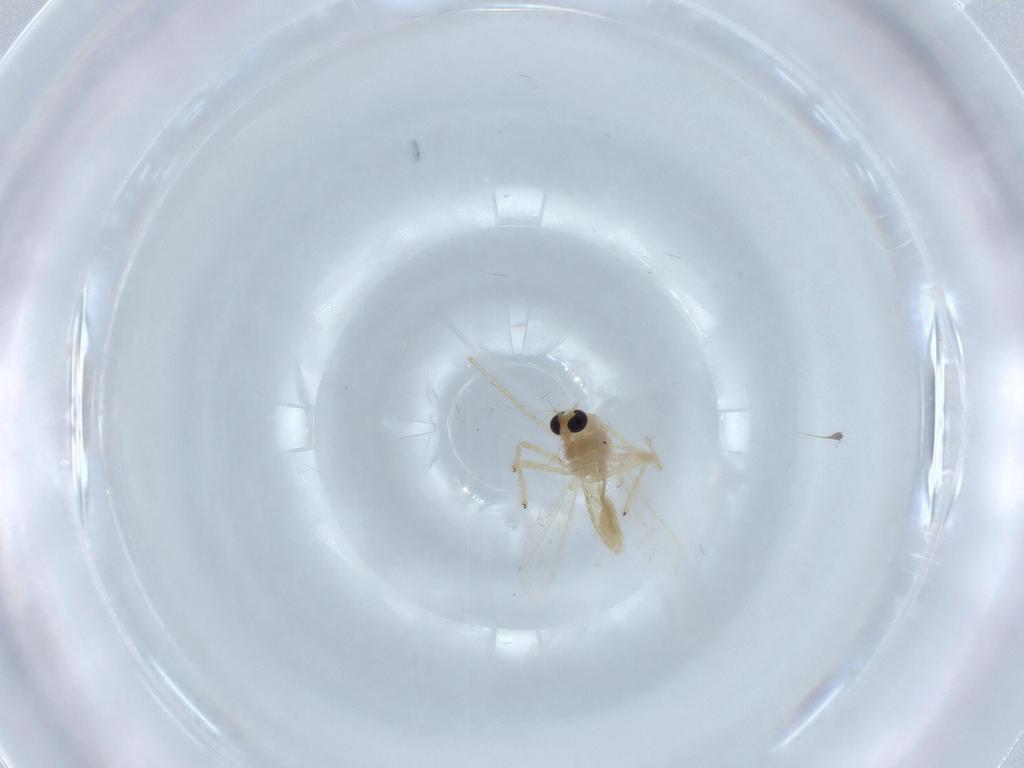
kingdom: Animalia
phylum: Arthropoda
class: Insecta
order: Diptera
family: Chironomidae
